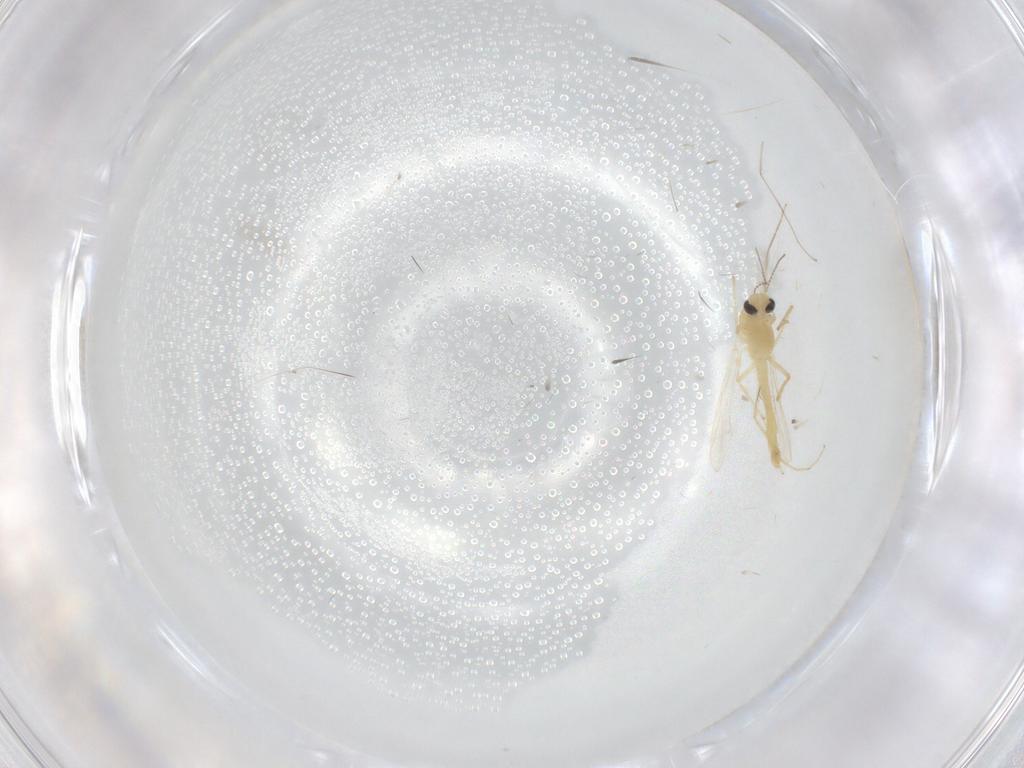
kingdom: Animalia
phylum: Arthropoda
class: Insecta
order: Diptera
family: Chironomidae
